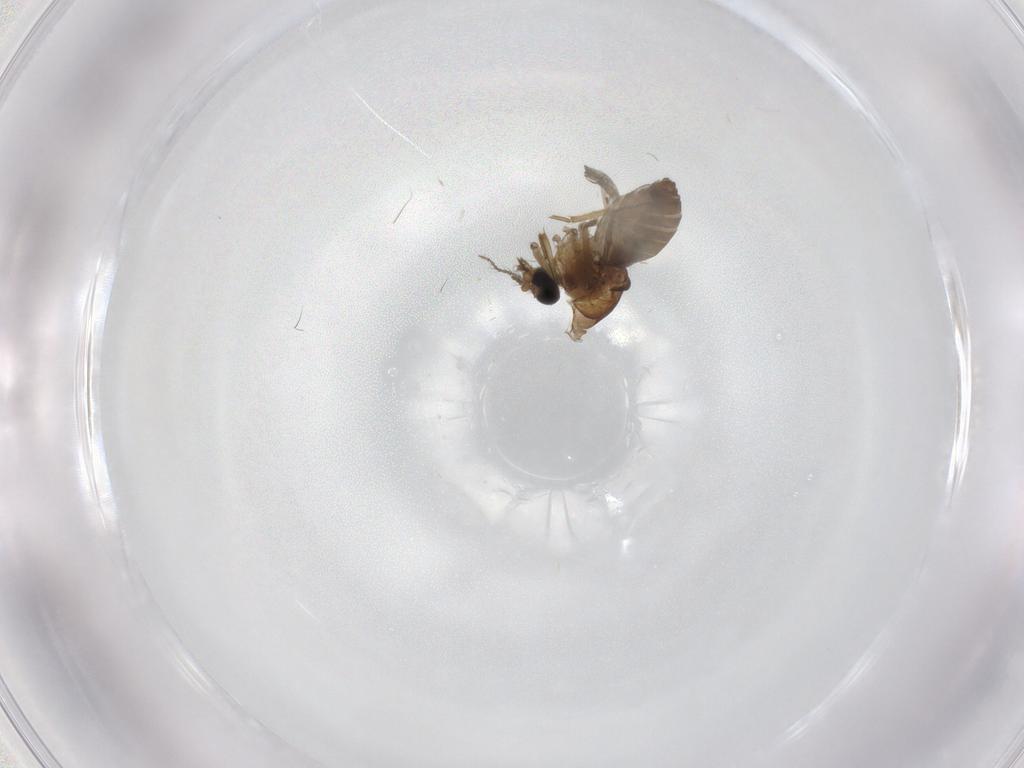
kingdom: Animalia
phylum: Arthropoda
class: Insecta
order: Diptera
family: Ceratopogonidae
